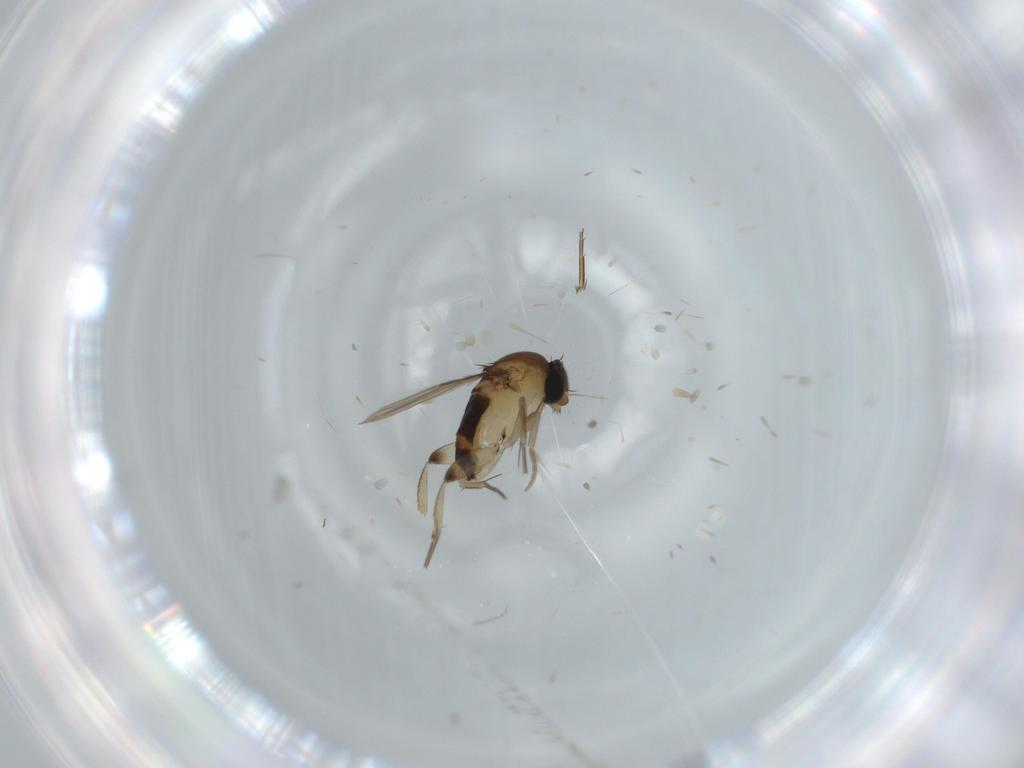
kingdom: Animalia
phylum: Arthropoda
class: Insecta
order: Diptera
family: Phoridae
